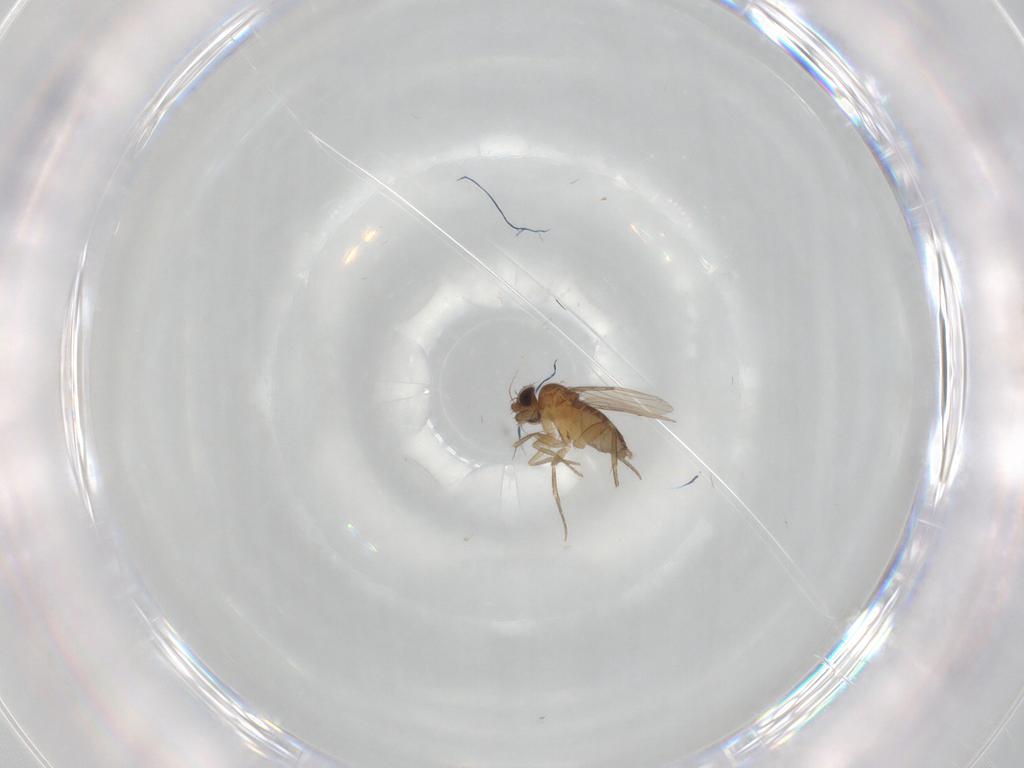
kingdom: Animalia
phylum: Arthropoda
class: Insecta
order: Diptera
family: Phoridae
